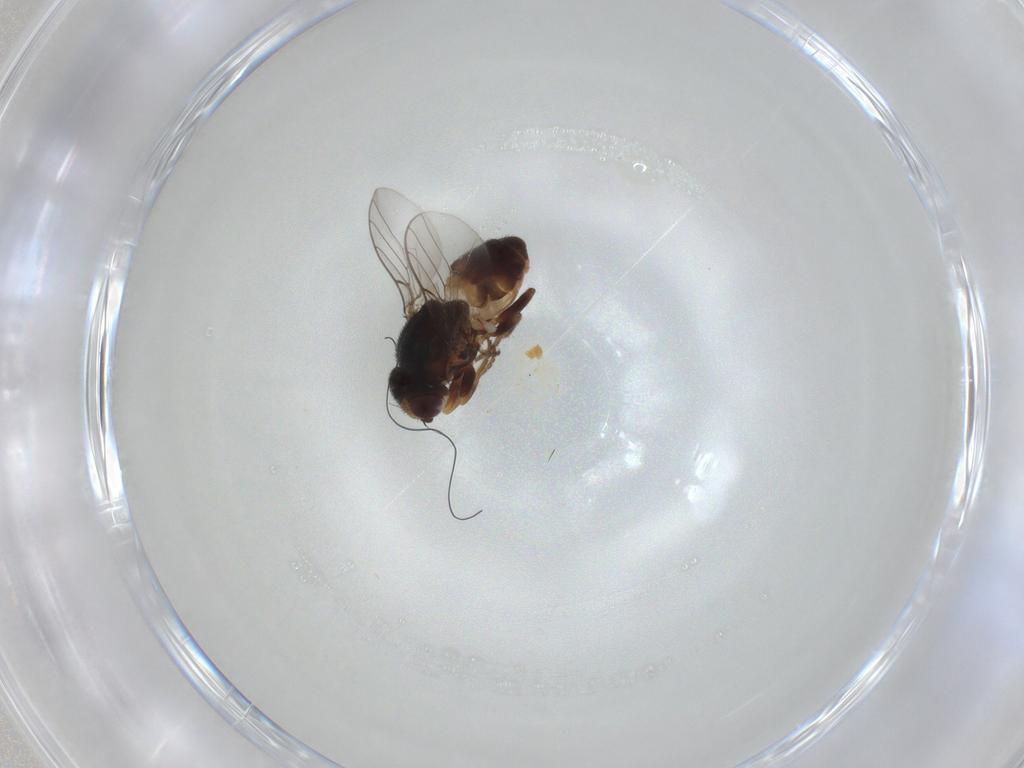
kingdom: Animalia
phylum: Arthropoda
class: Insecta
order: Diptera
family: Chloropidae
